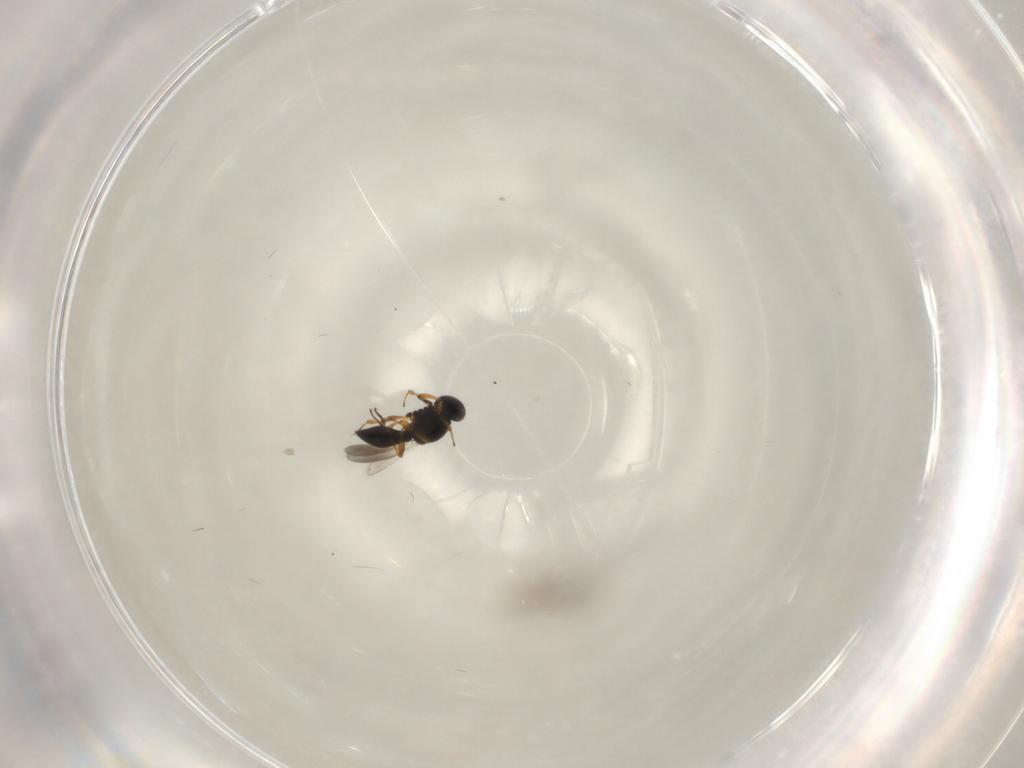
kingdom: Animalia
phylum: Arthropoda
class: Insecta
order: Hymenoptera
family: Platygastridae
